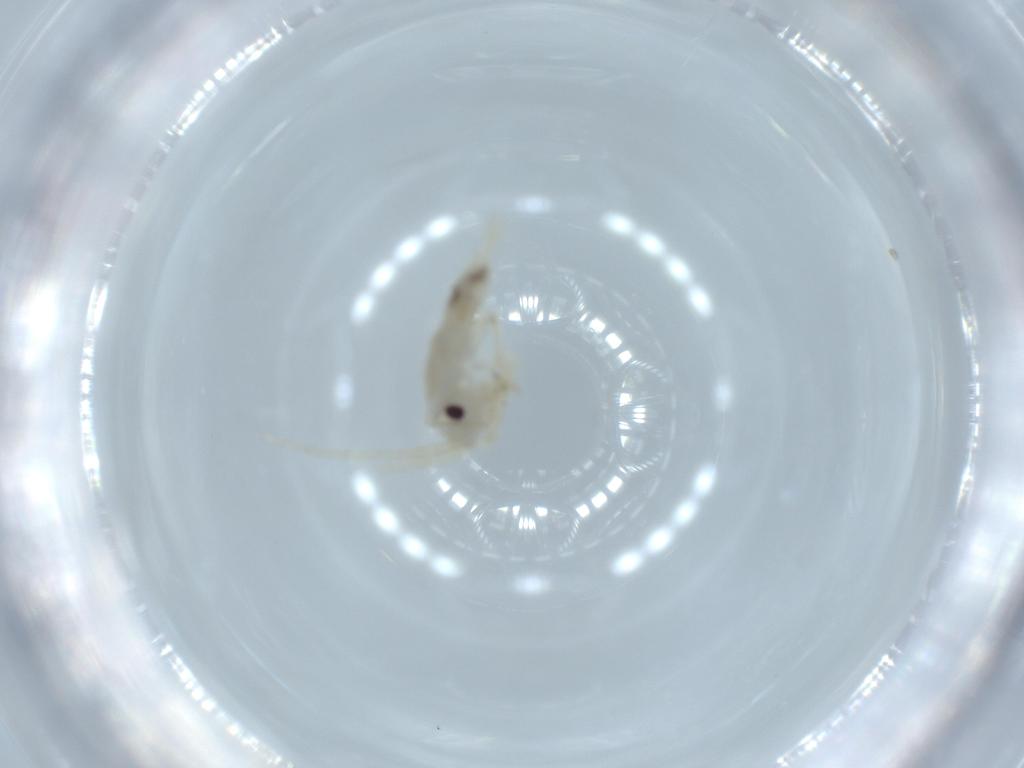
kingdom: Animalia
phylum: Arthropoda
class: Insecta
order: Orthoptera
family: Trigonidiidae
